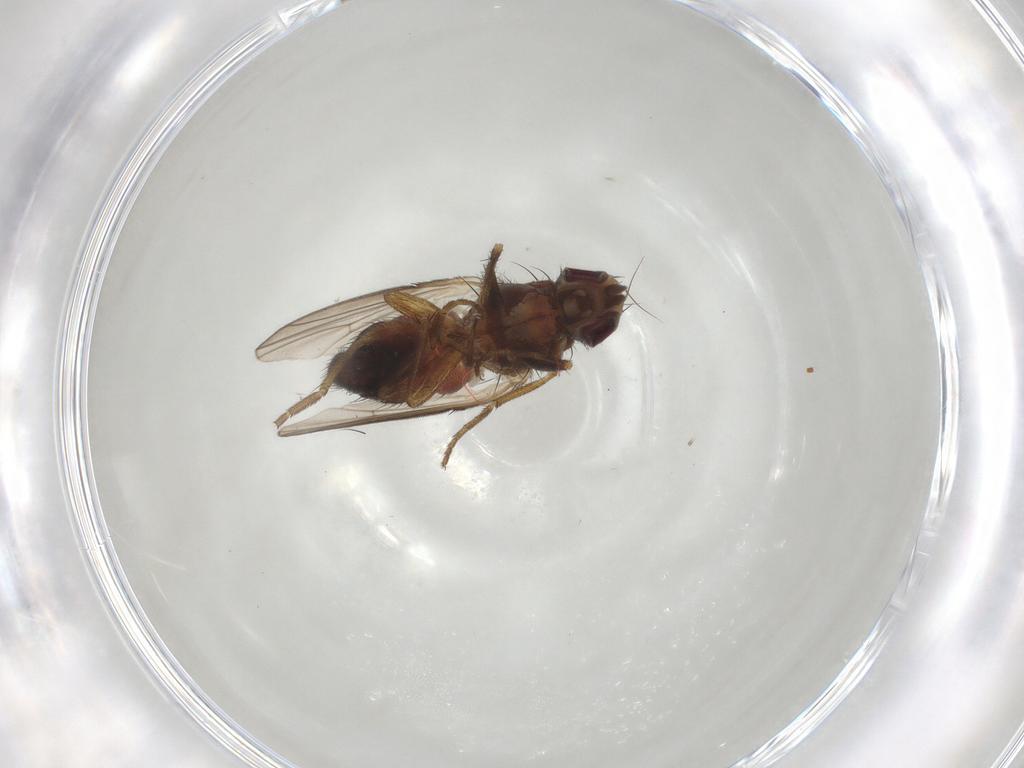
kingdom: Animalia
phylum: Arthropoda
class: Insecta
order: Diptera
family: Heleomyzidae
